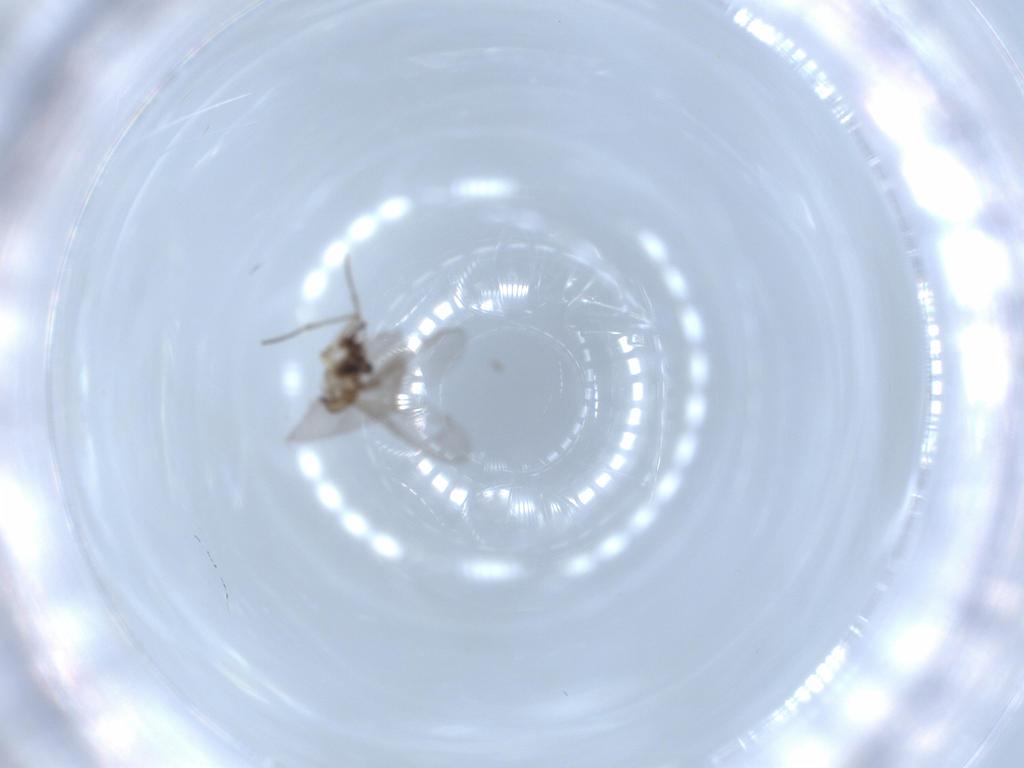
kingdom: Animalia
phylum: Arthropoda
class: Insecta
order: Diptera
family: Sciaridae
